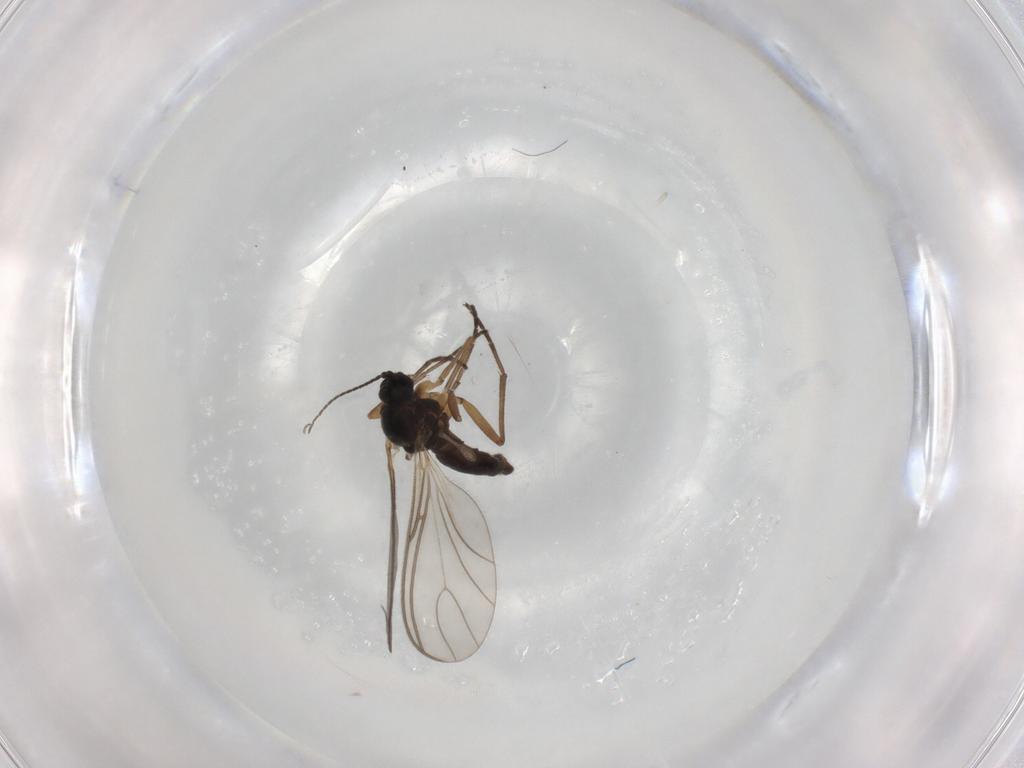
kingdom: Animalia
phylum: Arthropoda
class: Insecta
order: Diptera
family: Sciaridae
